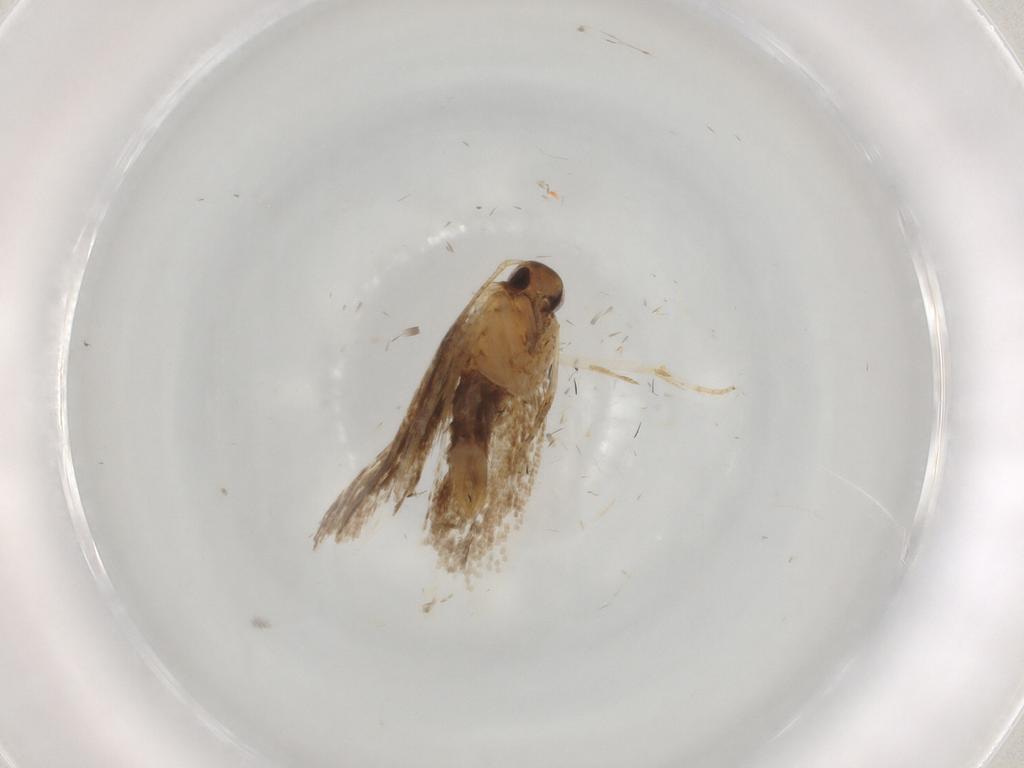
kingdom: Animalia
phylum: Arthropoda
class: Insecta
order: Lepidoptera
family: Oecophoridae
